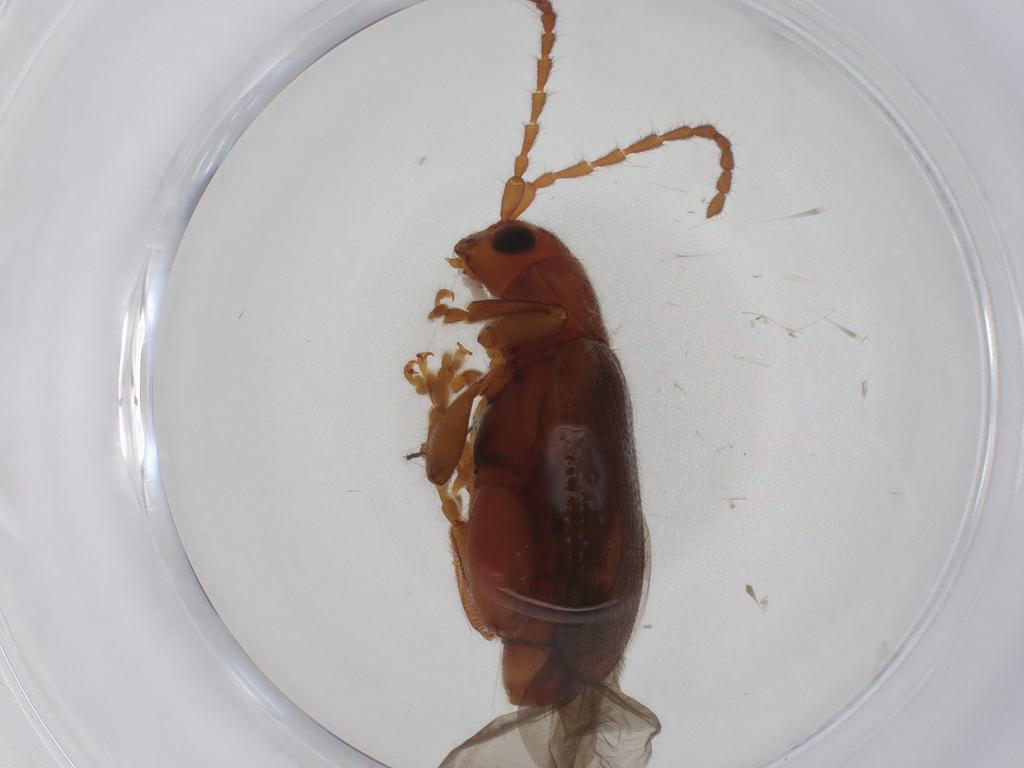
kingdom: Animalia
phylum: Arthropoda
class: Insecta
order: Coleoptera
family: Chrysomelidae
